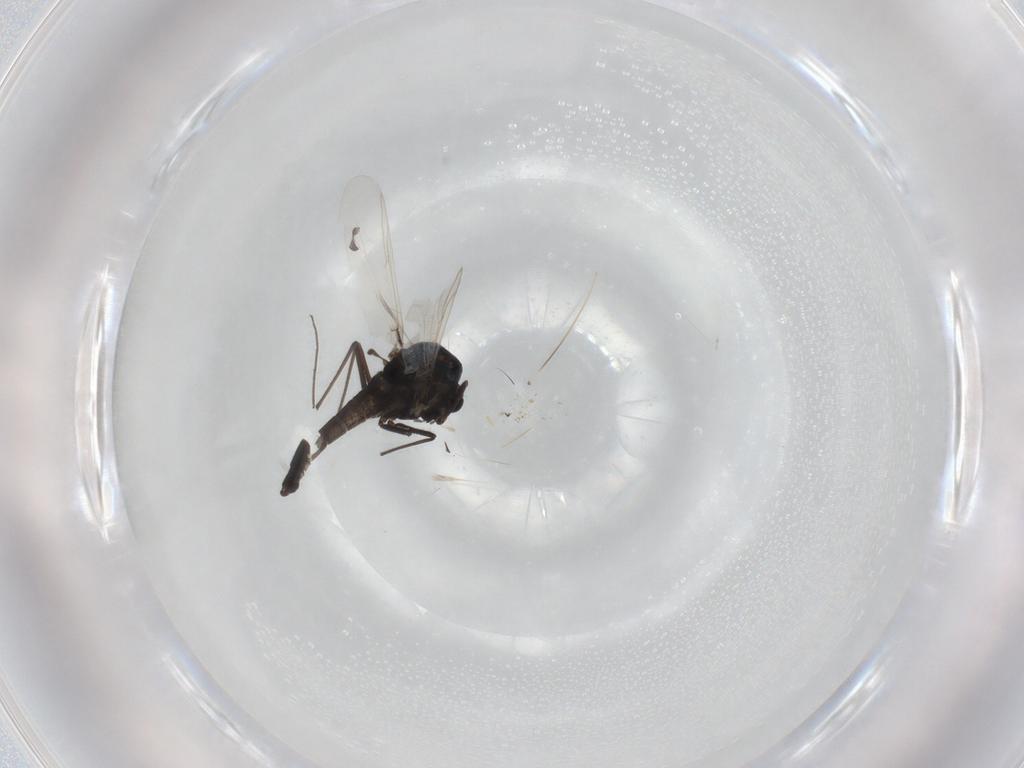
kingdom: Animalia
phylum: Arthropoda
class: Insecta
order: Diptera
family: Chironomidae
